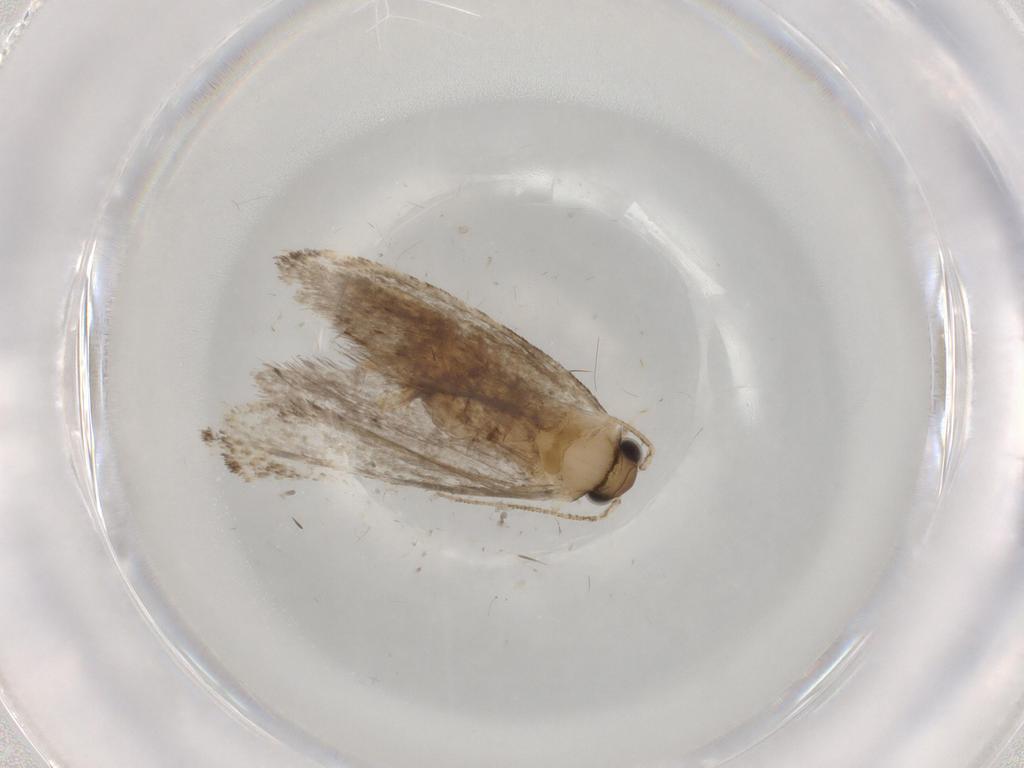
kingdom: Animalia
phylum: Arthropoda
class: Insecta
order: Lepidoptera
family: Tineidae
